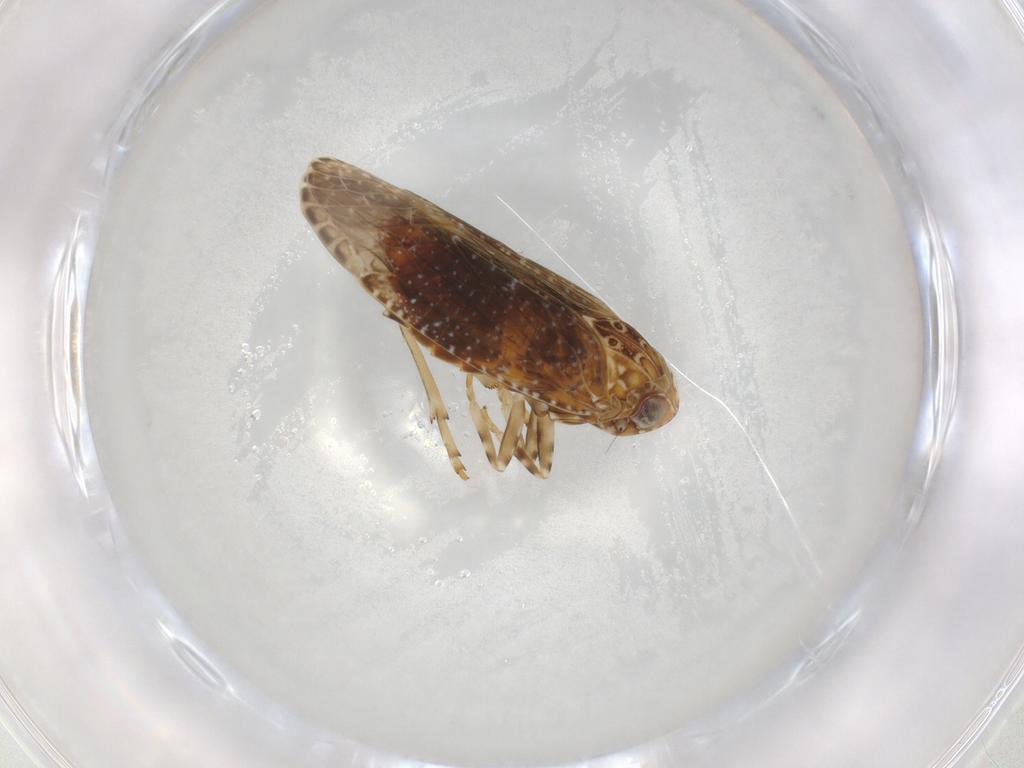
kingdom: Animalia
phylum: Arthropoda
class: Insecta
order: Hemiptera
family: Cicadellidae
